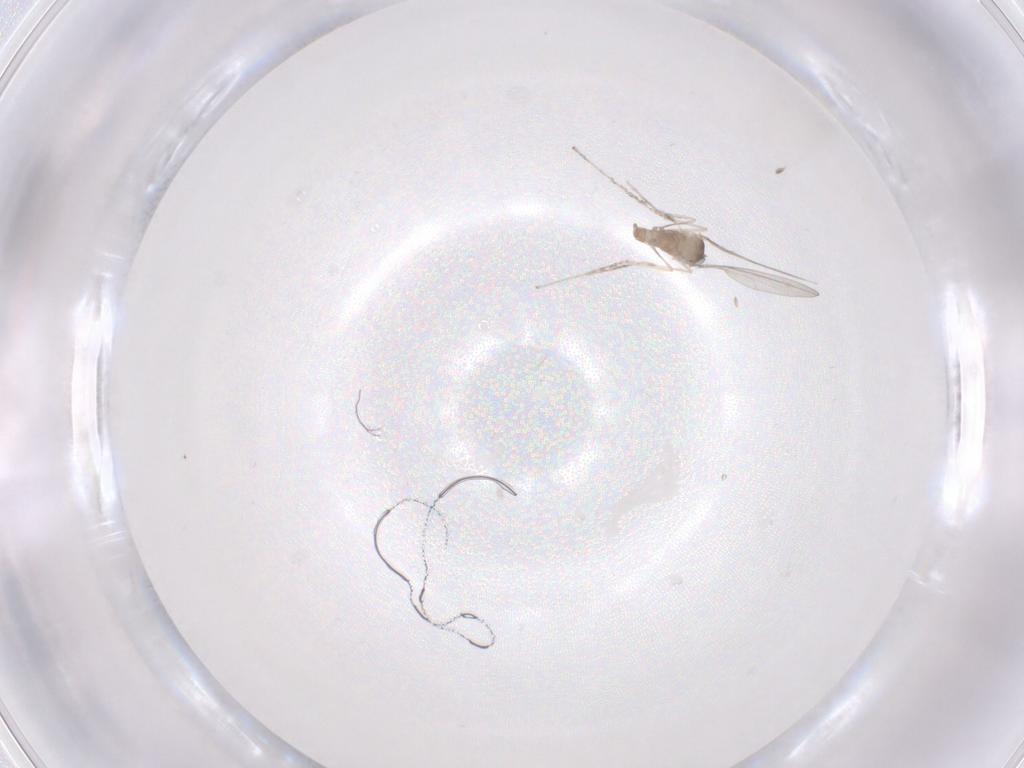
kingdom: Animalia
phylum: Arthropoda
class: Insecta
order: Diptera
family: Cecidomyiidae
